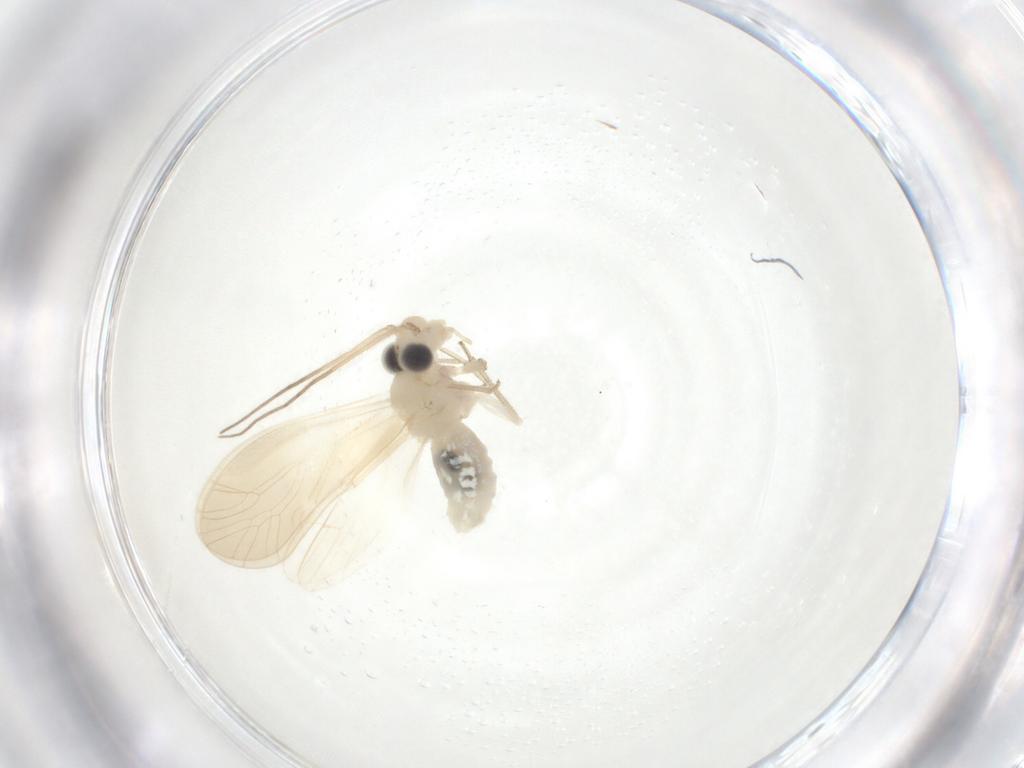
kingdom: Animalia
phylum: Arthropoda
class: Insecta
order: Psocodea
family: Caeciliusidae
